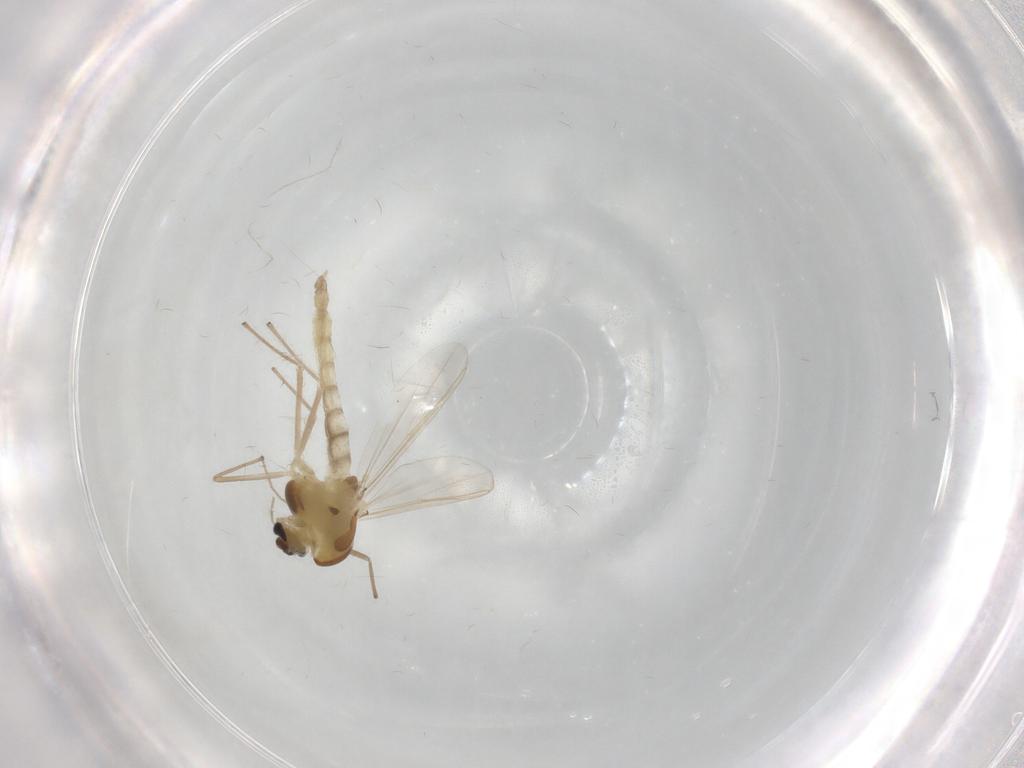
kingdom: Animalia
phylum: Arthropoda
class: Insecta
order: Diptera
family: Chironomidae
